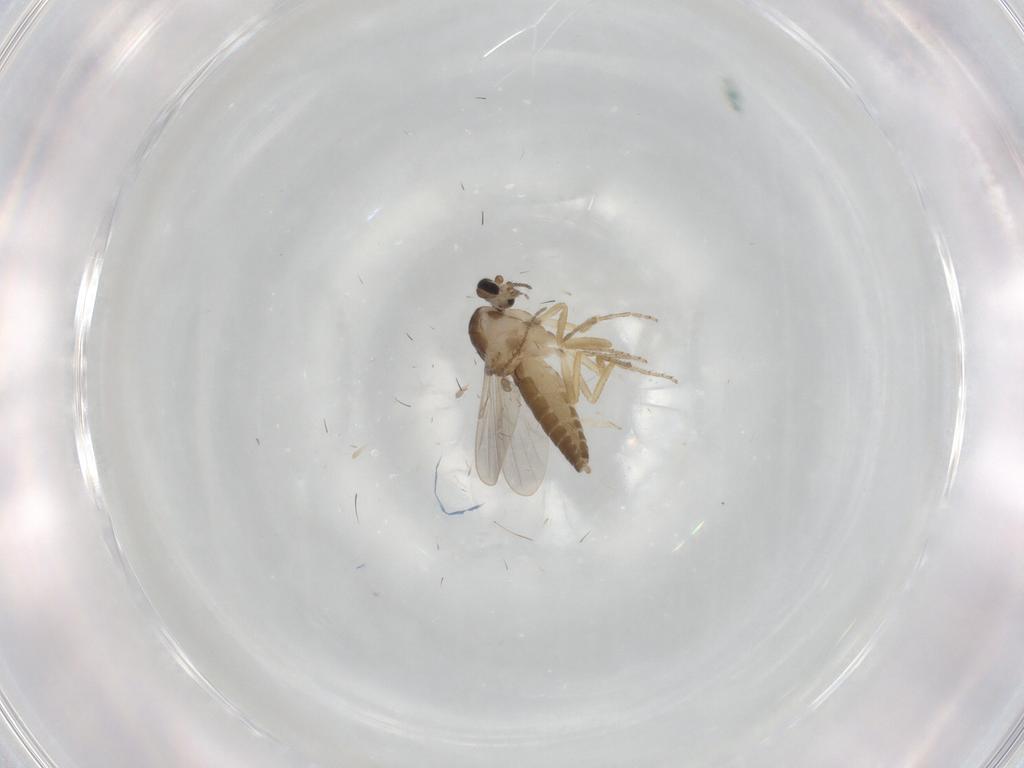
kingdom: Animalia
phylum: Arthropoda
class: Insecta
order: Diptera
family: Ceratopogonidae
